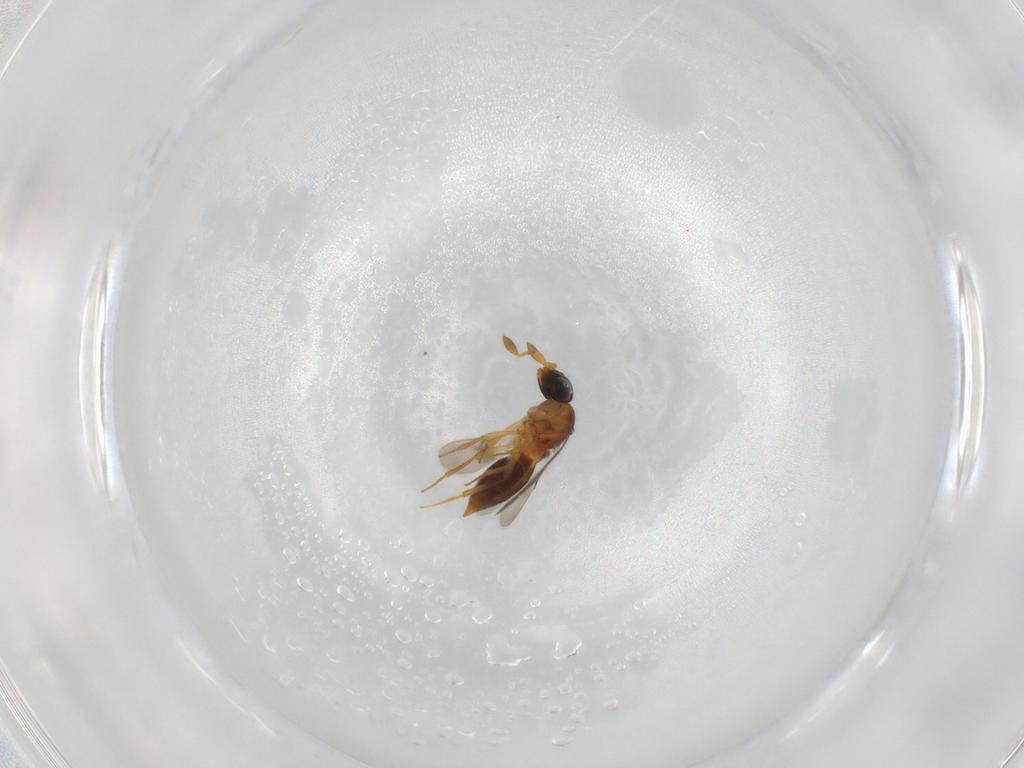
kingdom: Animalia
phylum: Arthropoda
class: Insecta
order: Hymenoptera
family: Scelionidae
